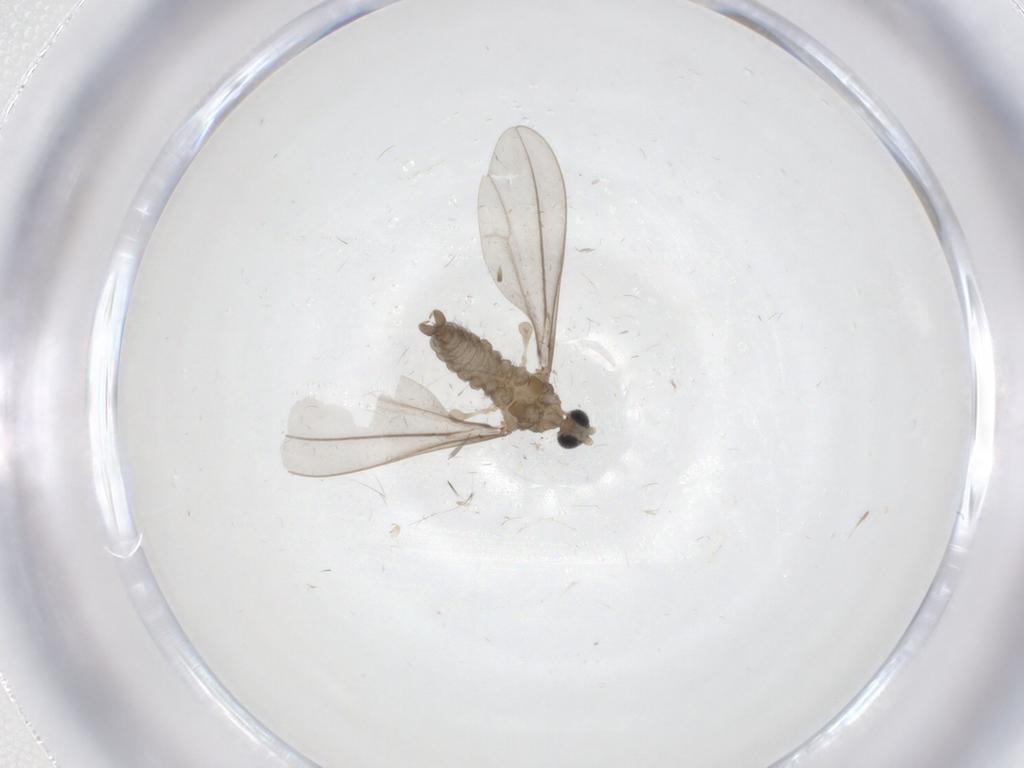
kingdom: Animalia
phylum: Arthropoda
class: Insecta
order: Diptera
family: Cecidomyiidae
